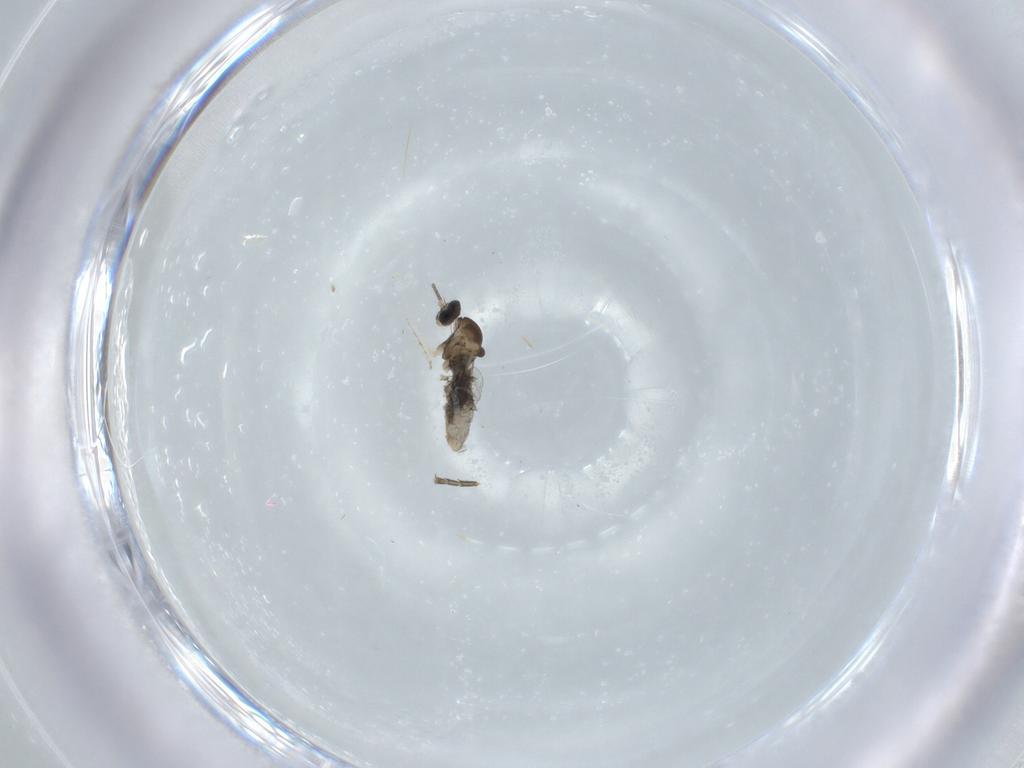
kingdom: Animalia
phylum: Arthropoda
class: Insecta
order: Diptera
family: Cecidomyiidae
